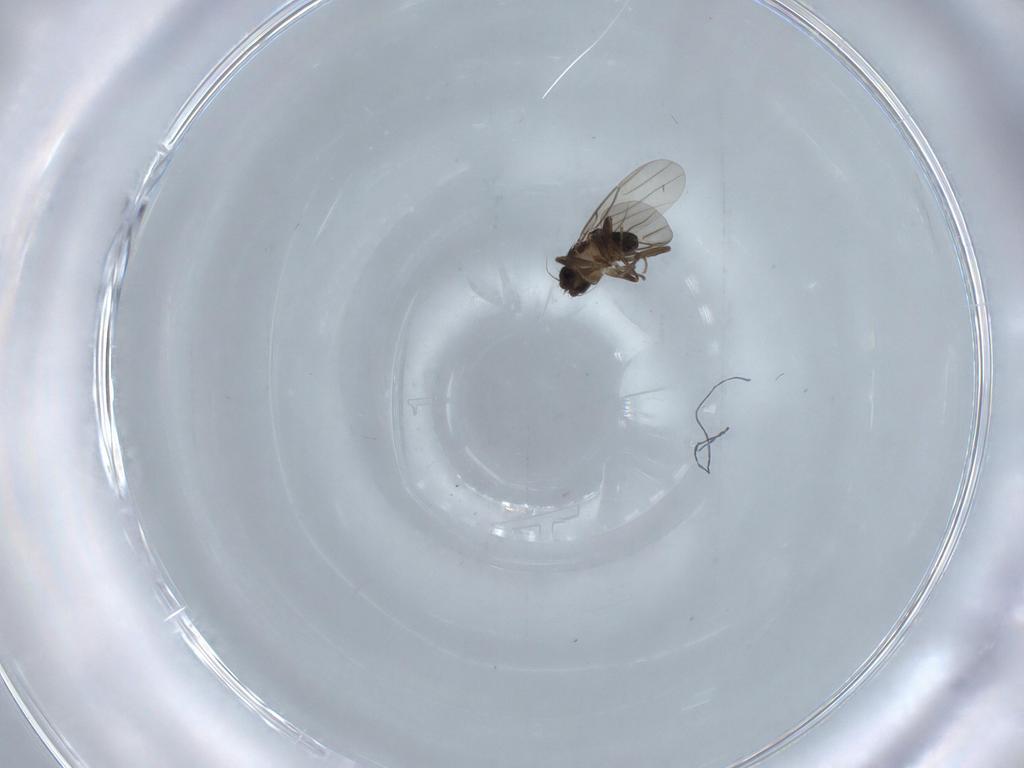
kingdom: Animalia
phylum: Arthropoda
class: Insecta
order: Diptera
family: Phoridae
